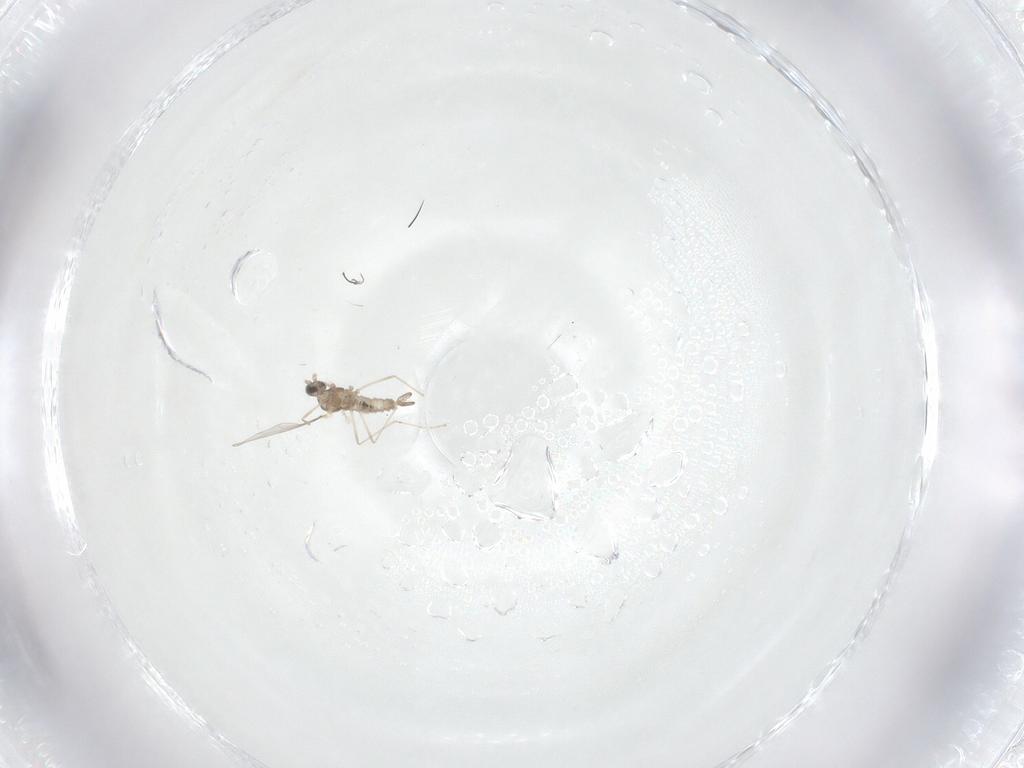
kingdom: Animalia
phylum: Arthropoda
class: Insecta
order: Diptera
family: Cecidomyiidae
